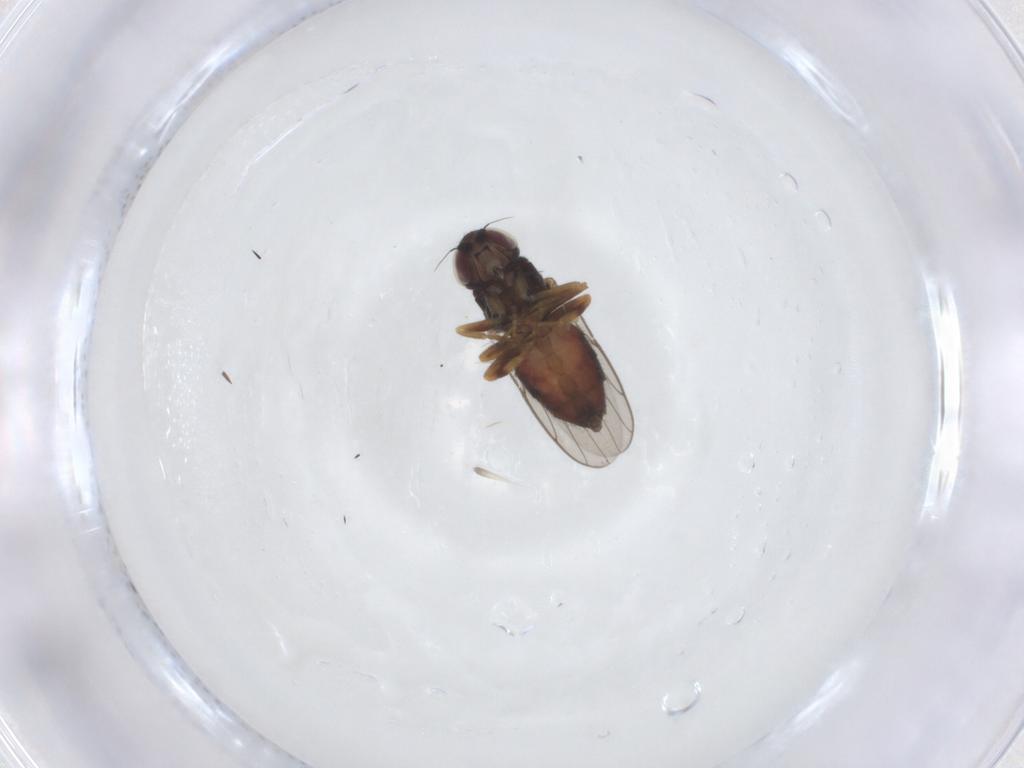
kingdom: Animalia
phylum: Arthropoda
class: Insecta
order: Diptera
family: Chloropidae
